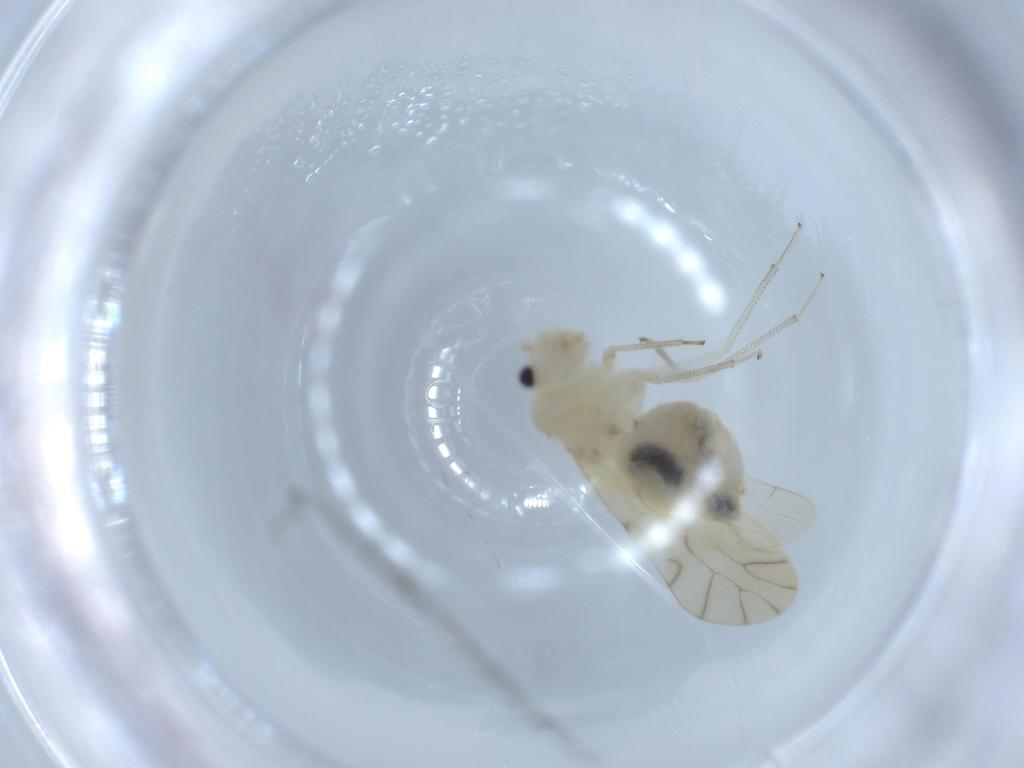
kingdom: Animalia
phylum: Arthropoda
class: Insecta
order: Psocodea
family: Caeciliusidae
